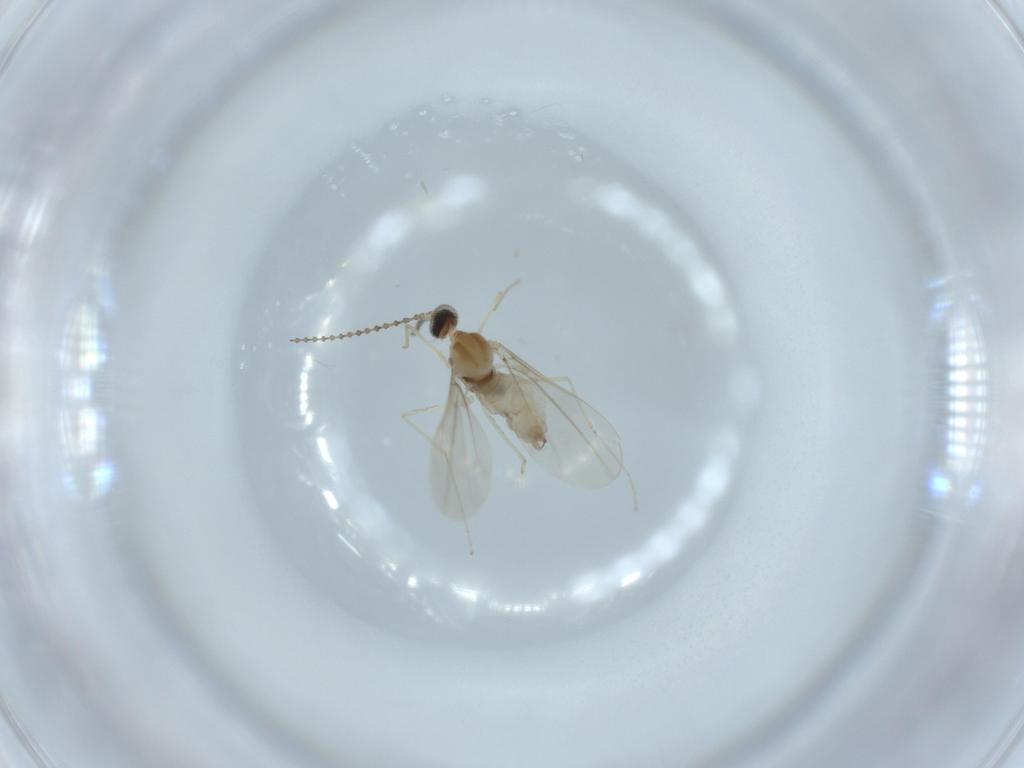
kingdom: Animalia
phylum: Arthropoda
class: Insecta
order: Diptera
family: Cecidomyiidae
